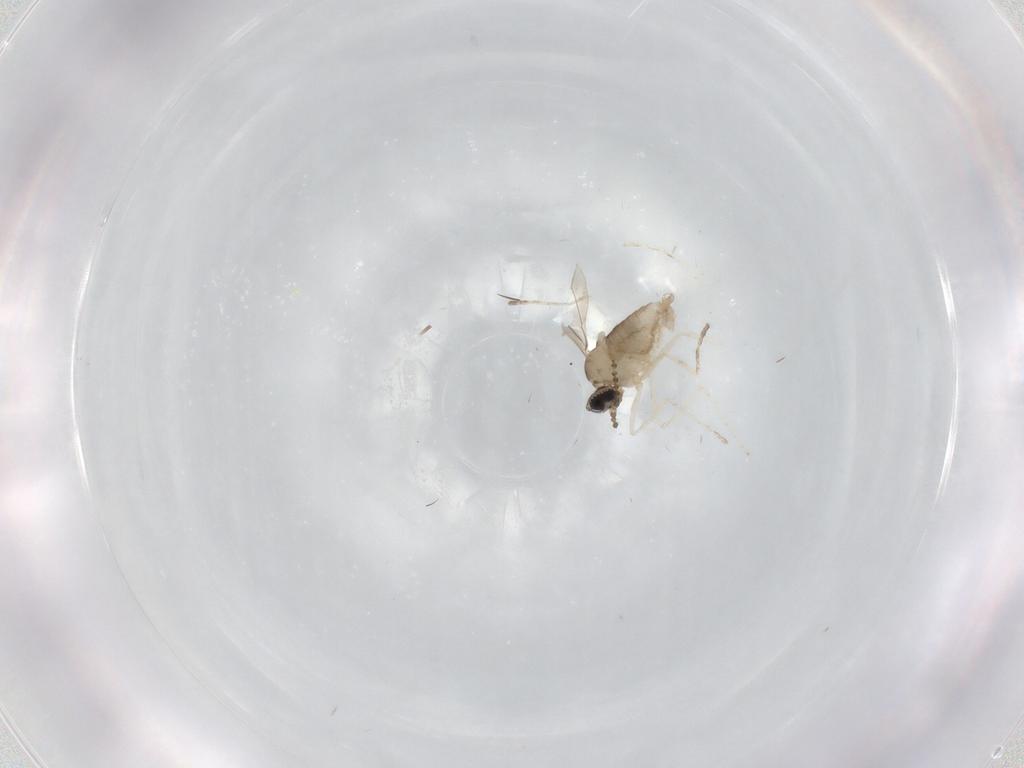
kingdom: Animalia
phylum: Arthropoda
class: Insecta
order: Diptera
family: Cecidomyiidae
